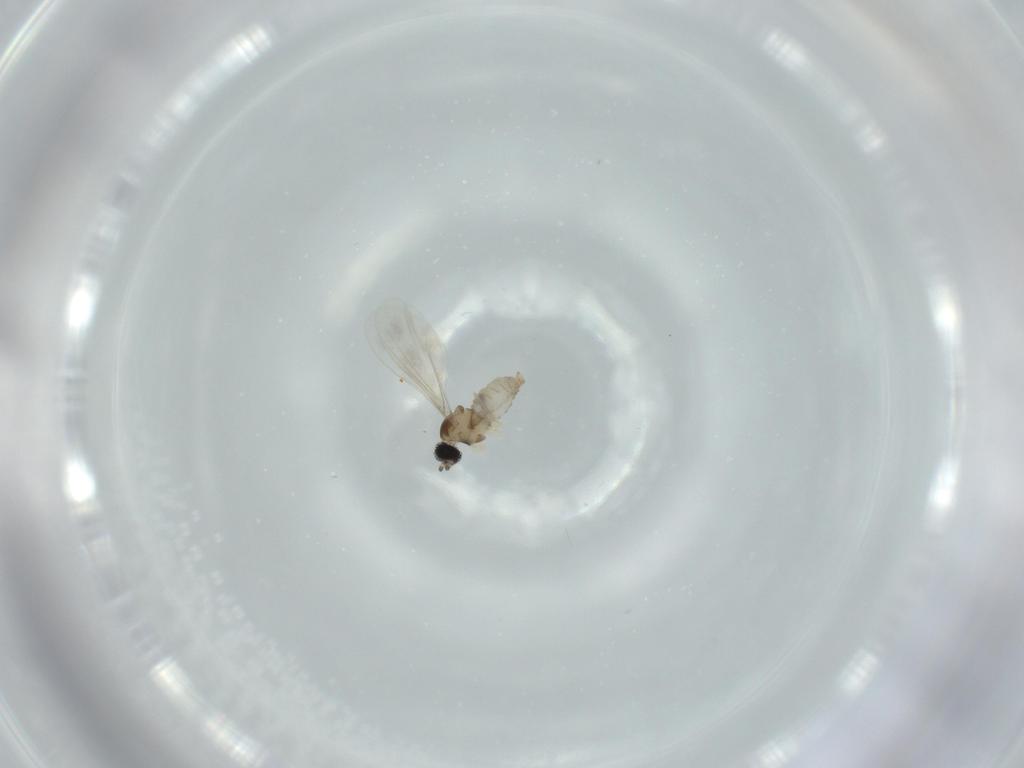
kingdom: Animalia
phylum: Arthropoda
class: Insecta
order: Diptera
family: Cecidomyiidae
